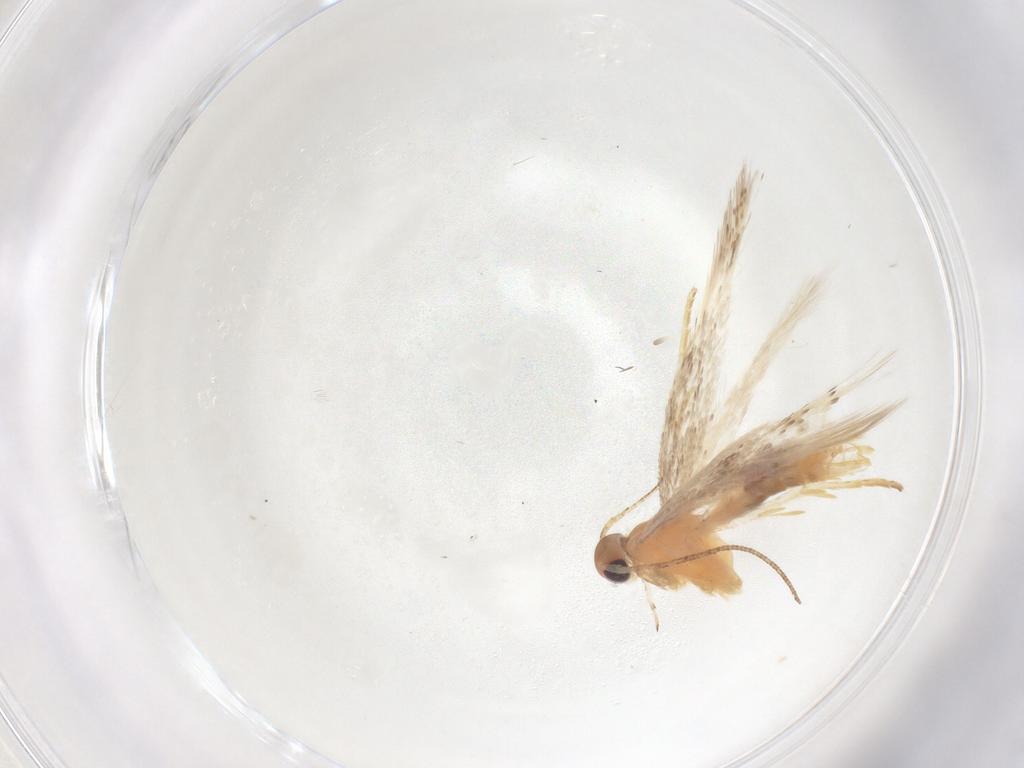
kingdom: Animalia
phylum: Arthropoda
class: Insecta
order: Lepidoptera
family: Gelechiidae
